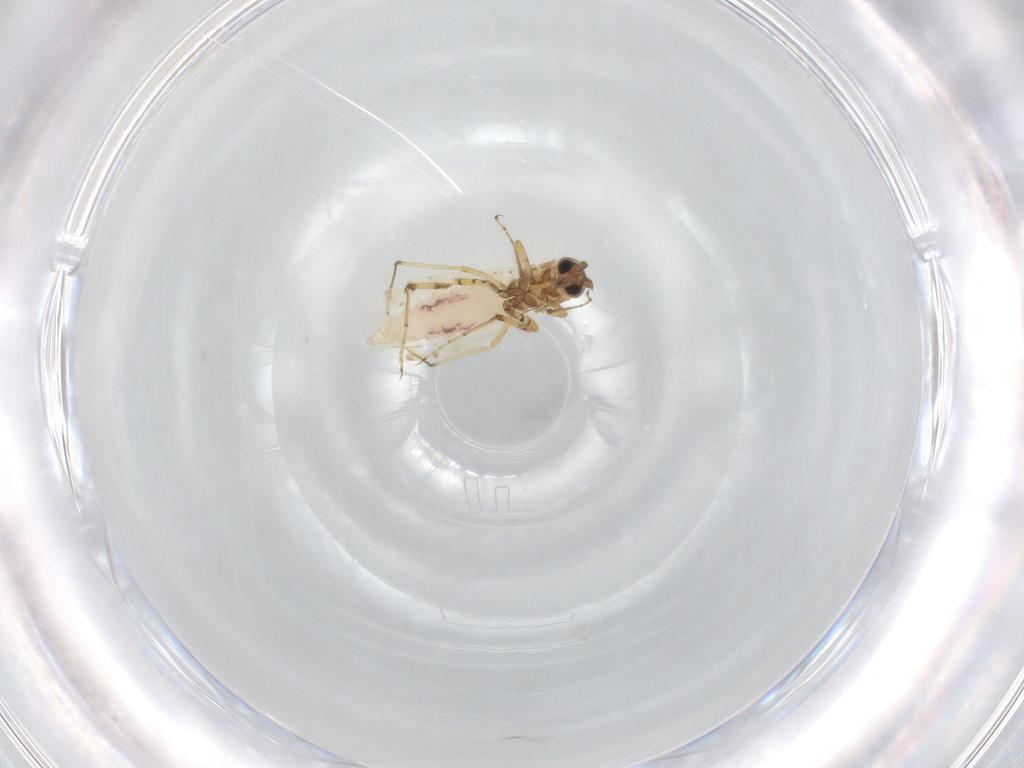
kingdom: Animalia
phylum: Arthropoda
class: Insecta
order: Diptera
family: Ceratopogonidae
